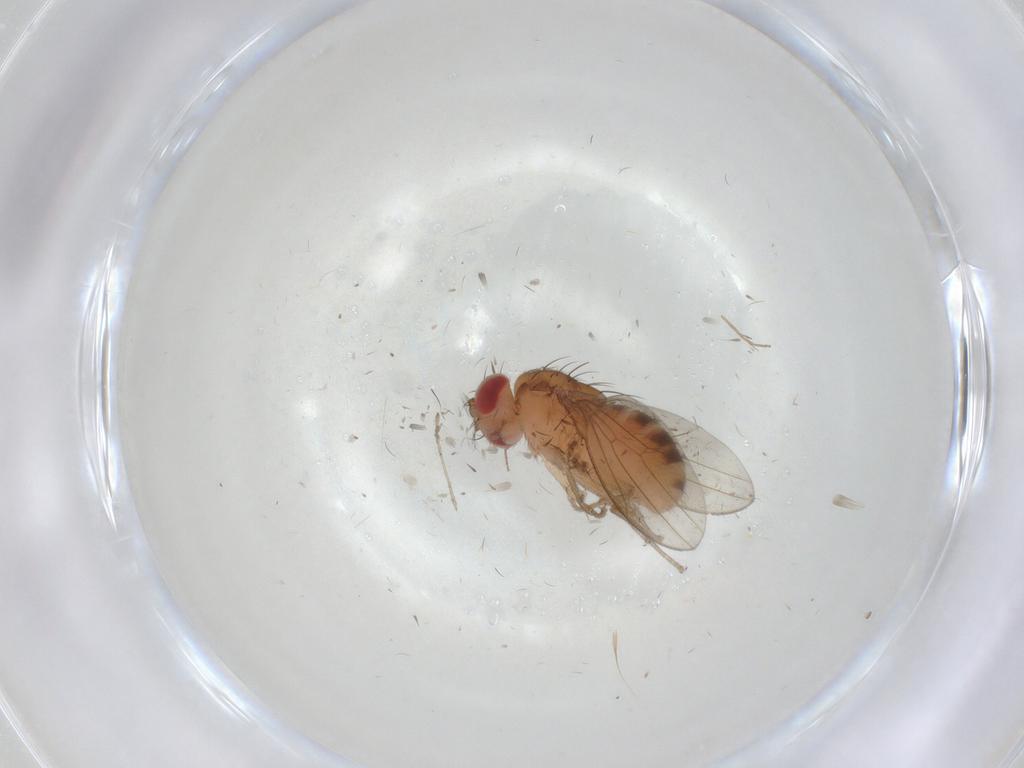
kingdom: Animalia
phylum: Arthropoda
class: Insecta
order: Diptera
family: Drosophilidae
